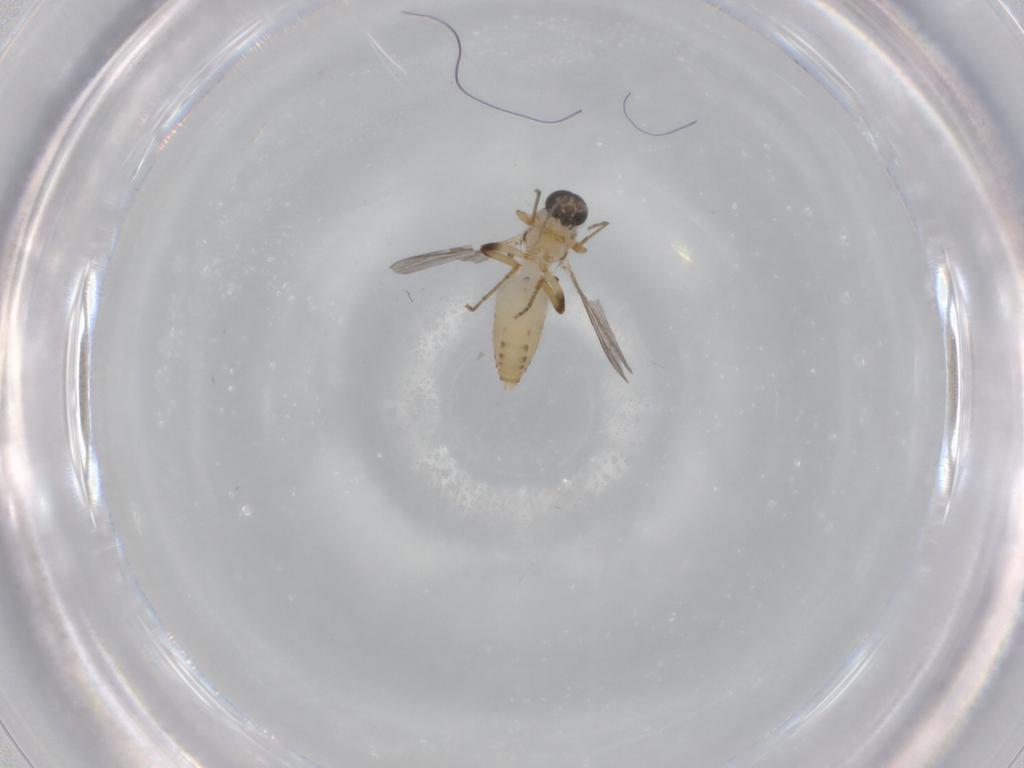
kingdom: Animalia
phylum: Arthropoda
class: Insecta
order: Diptera
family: Ceratopogonidae
